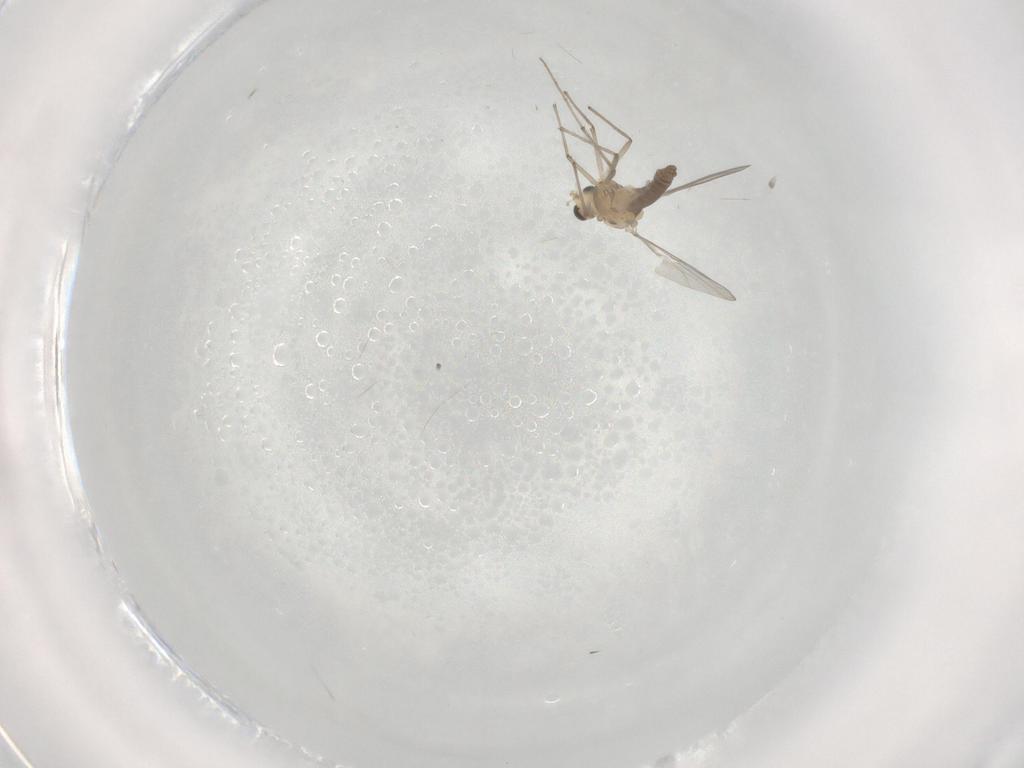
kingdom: Animalia
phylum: Arthropoda
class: Insecta
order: Diptera
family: Chironomidae
